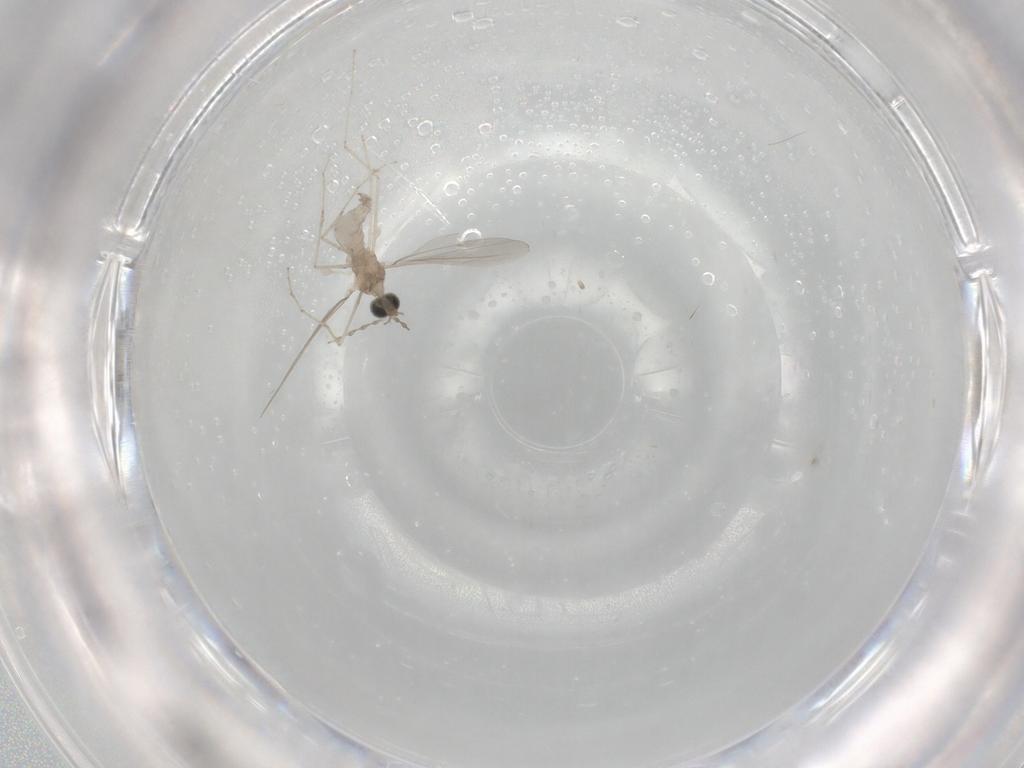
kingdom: Animalia
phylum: Arthropoda
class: Insecta
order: Diptera
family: Cecidomyiidae
